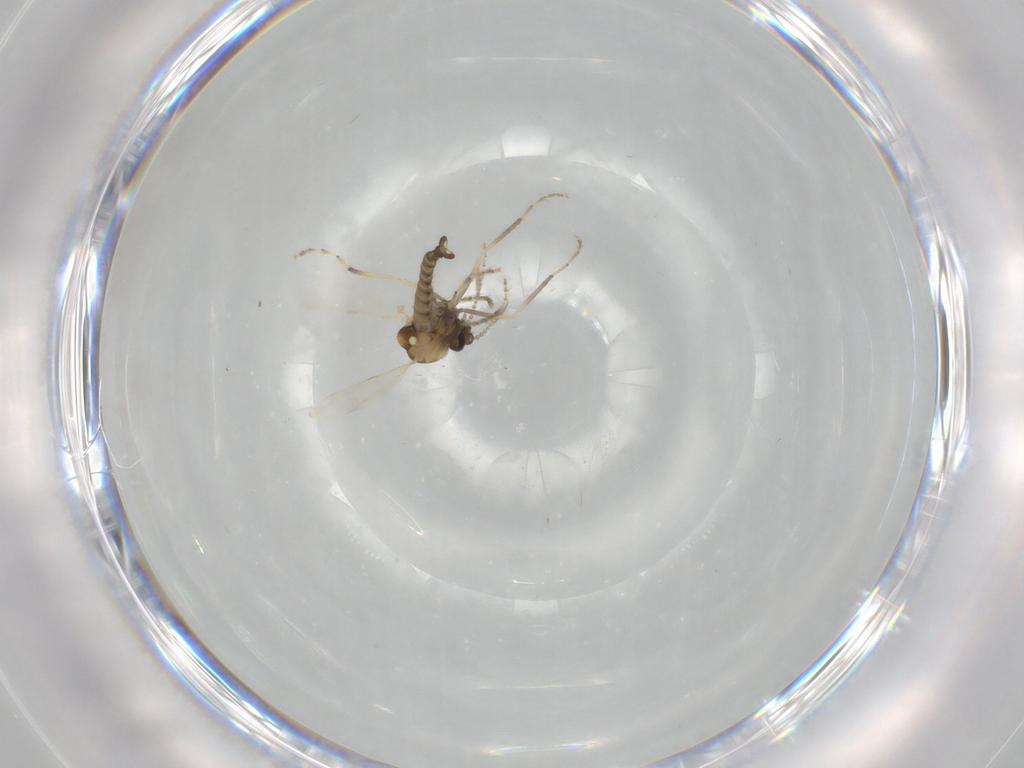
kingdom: Animalia
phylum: Arthropoda
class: Insecta
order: Diptera
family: Ceratopogonidae
